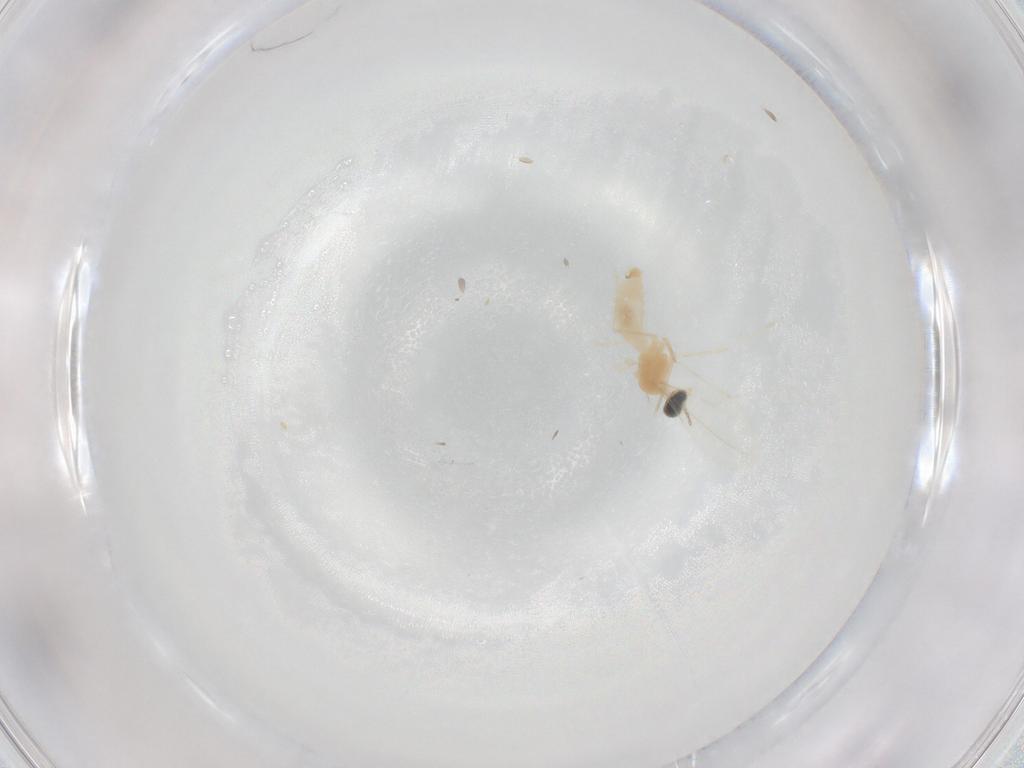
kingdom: Animalia
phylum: Arthropoda
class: Insecta
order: Diptera
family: Cecidomyiidae
